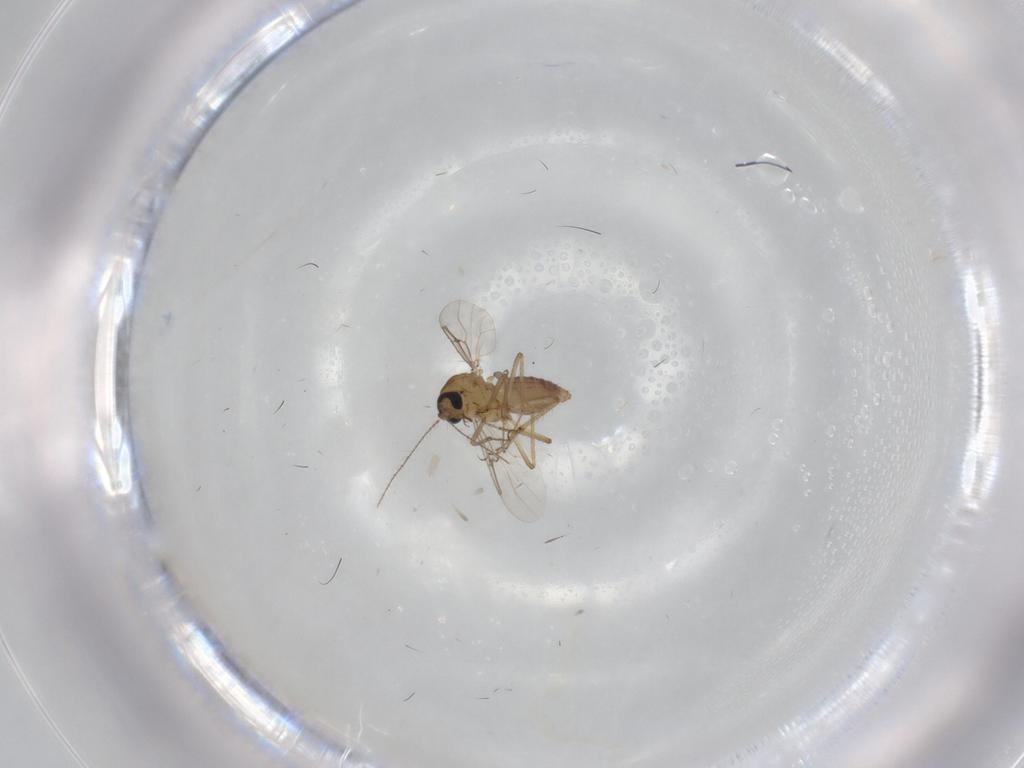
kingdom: Animalia
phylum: Arthropoda
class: Insecta
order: Diptera
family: Ceratopogonidae
